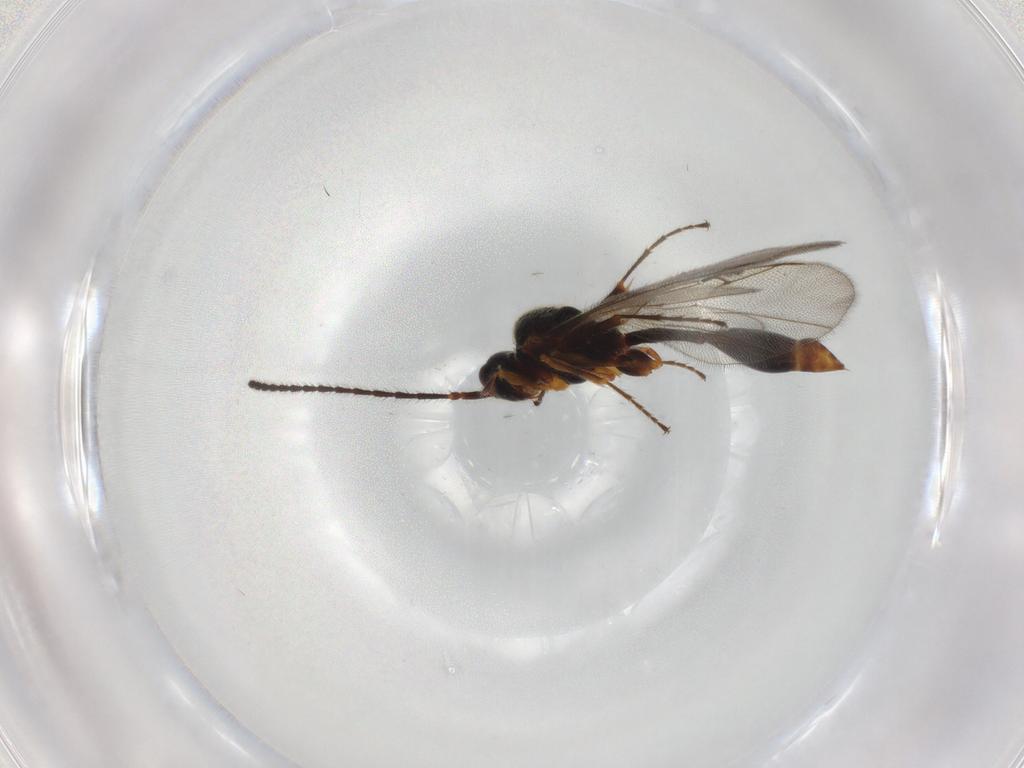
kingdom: Animalia
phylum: Arthropoda
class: Insecta
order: Hymenoptera
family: Diapriidae
